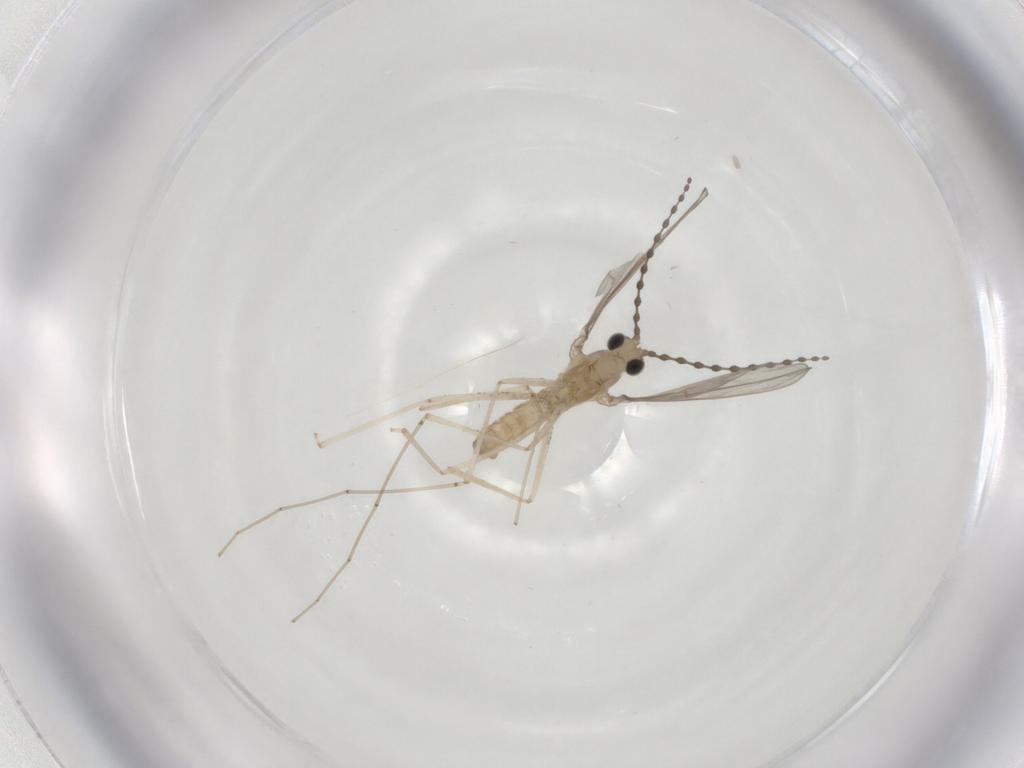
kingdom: Animalia
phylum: Arthropoda
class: Insecta
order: Diptera
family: Cecidomyiidae
